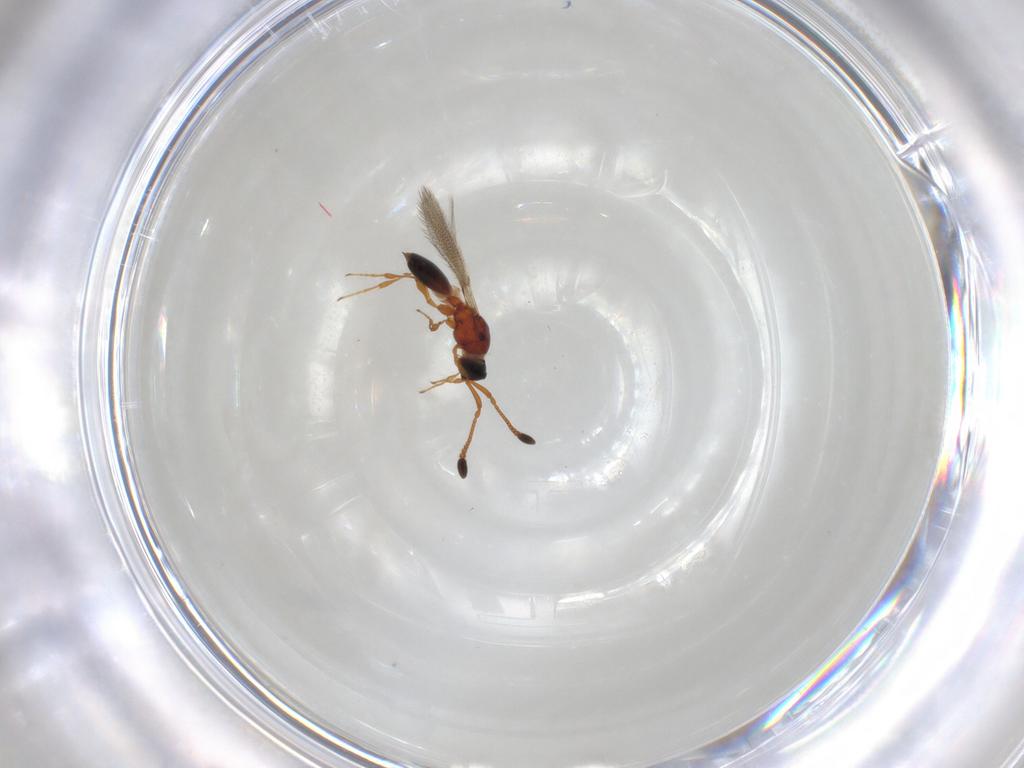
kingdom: Animalia
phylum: Arthropoda
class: Insecta
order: Hymenoptera
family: Diapriidae
